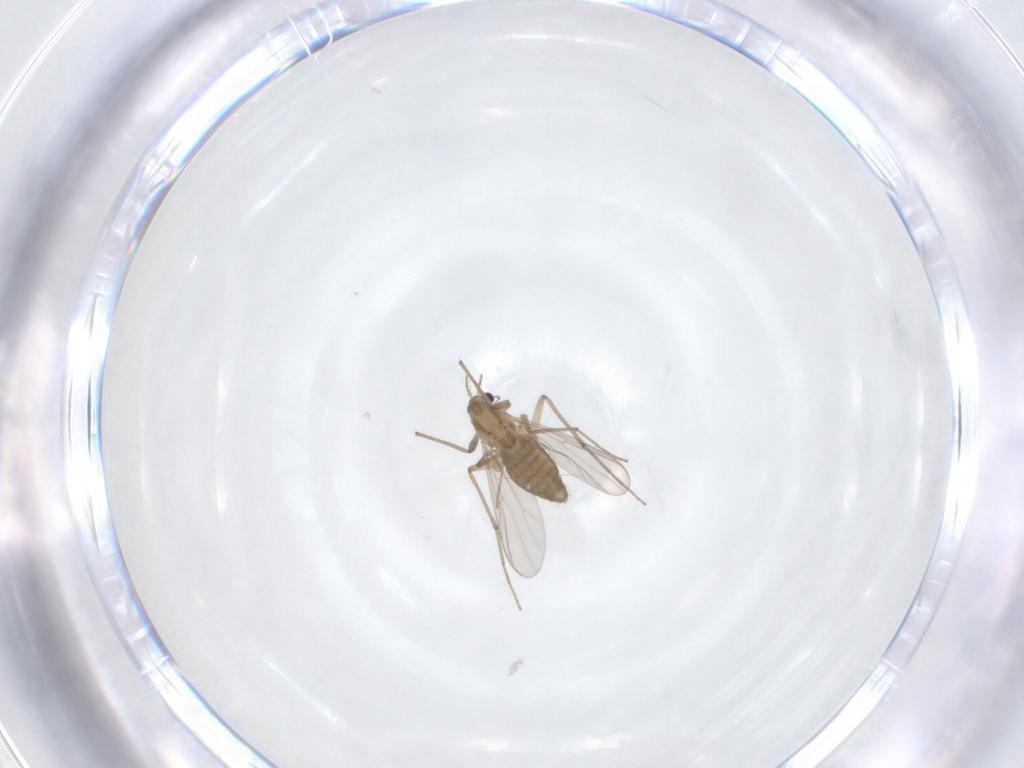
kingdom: Animalia
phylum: Arthropoda
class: Insecta
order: Diptera
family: Chironomidae
